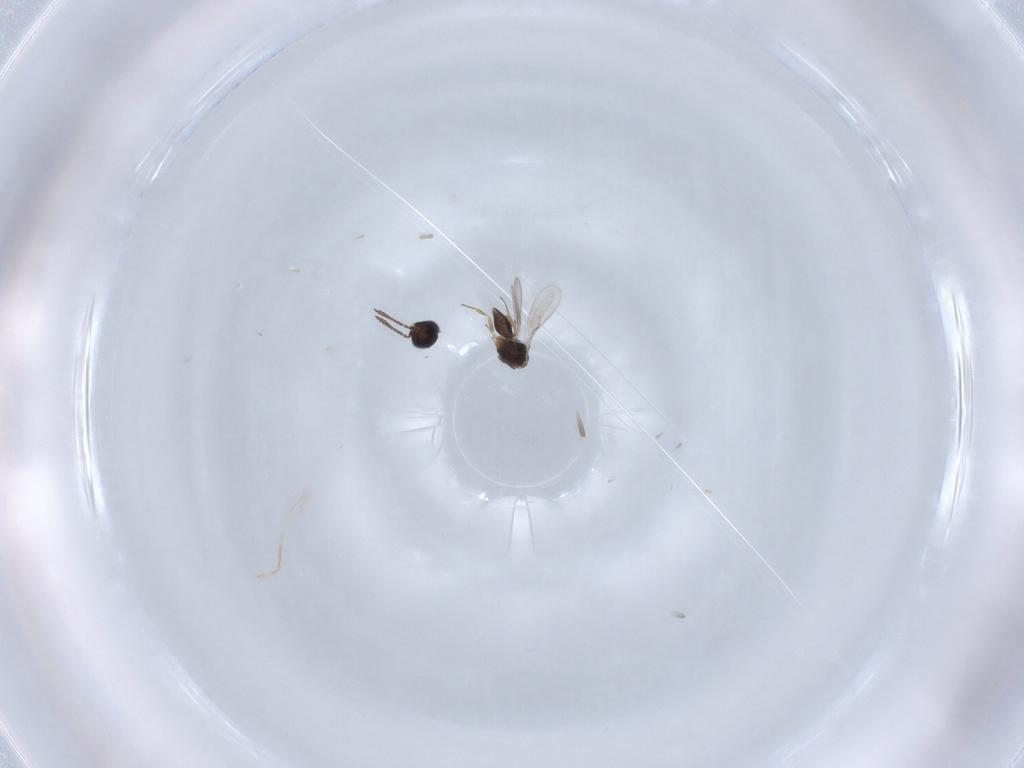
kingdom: Animalia
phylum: Arthropoda
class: Insecta
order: Hymenoptera
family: Scelionidae
